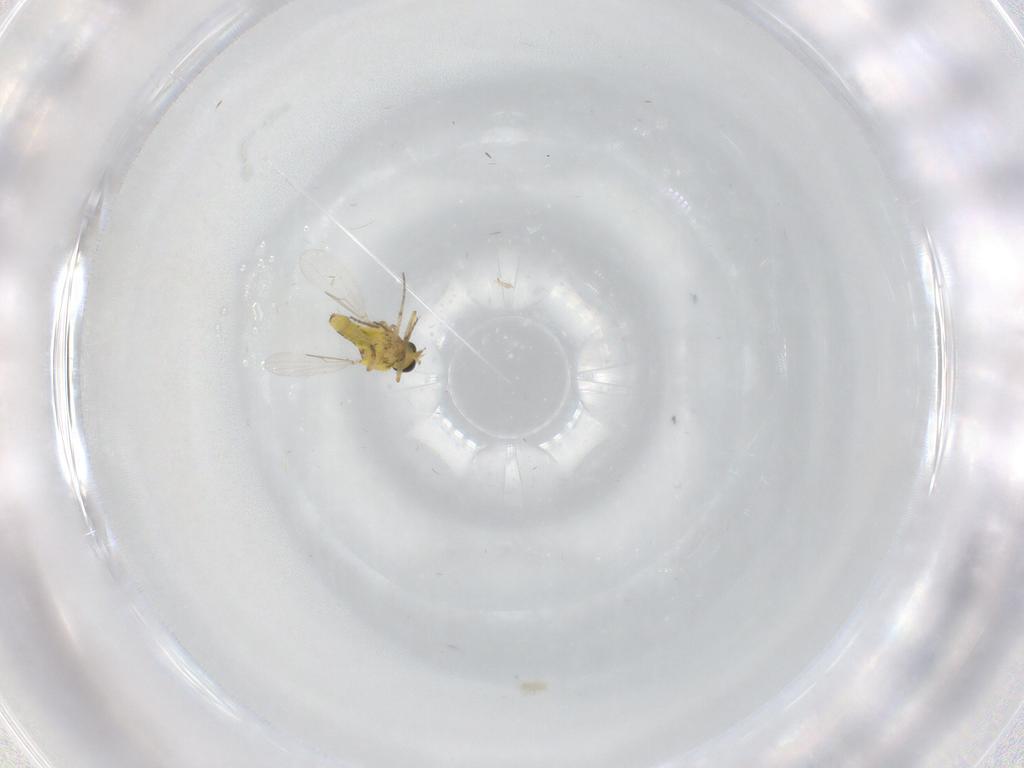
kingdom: Animalia
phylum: Arthropoda
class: Insecta
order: Diptera
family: Ceratopogonidae
